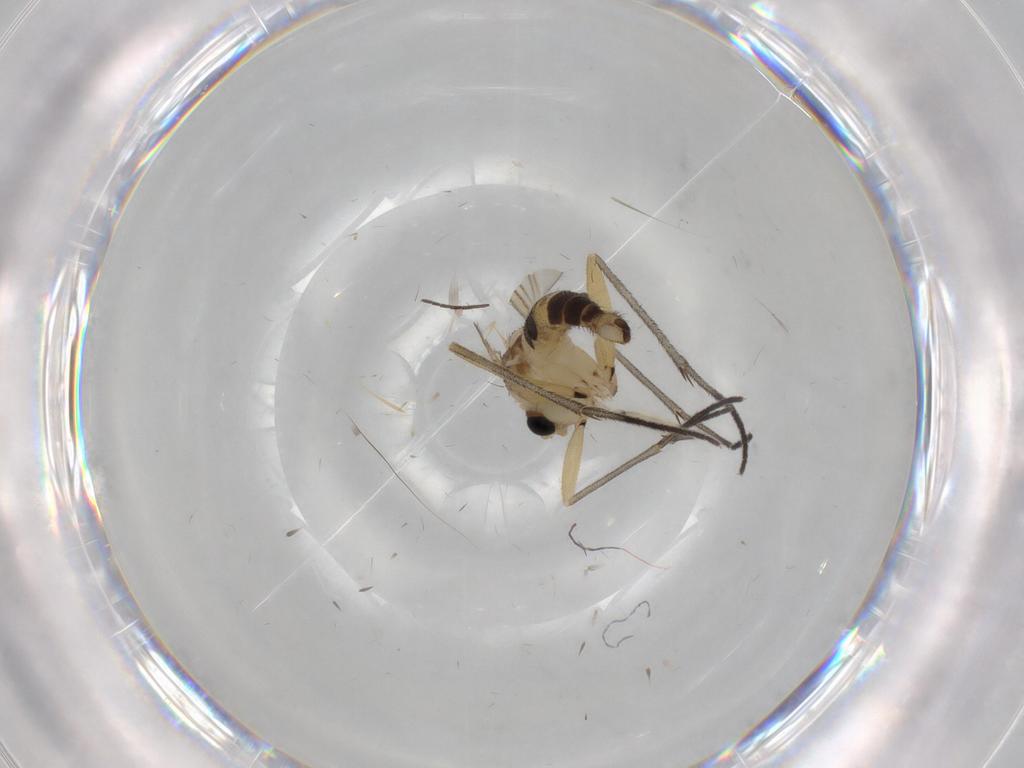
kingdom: Animalia
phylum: Arthropoda
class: Insecta
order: Diptera
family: Sciaridae
